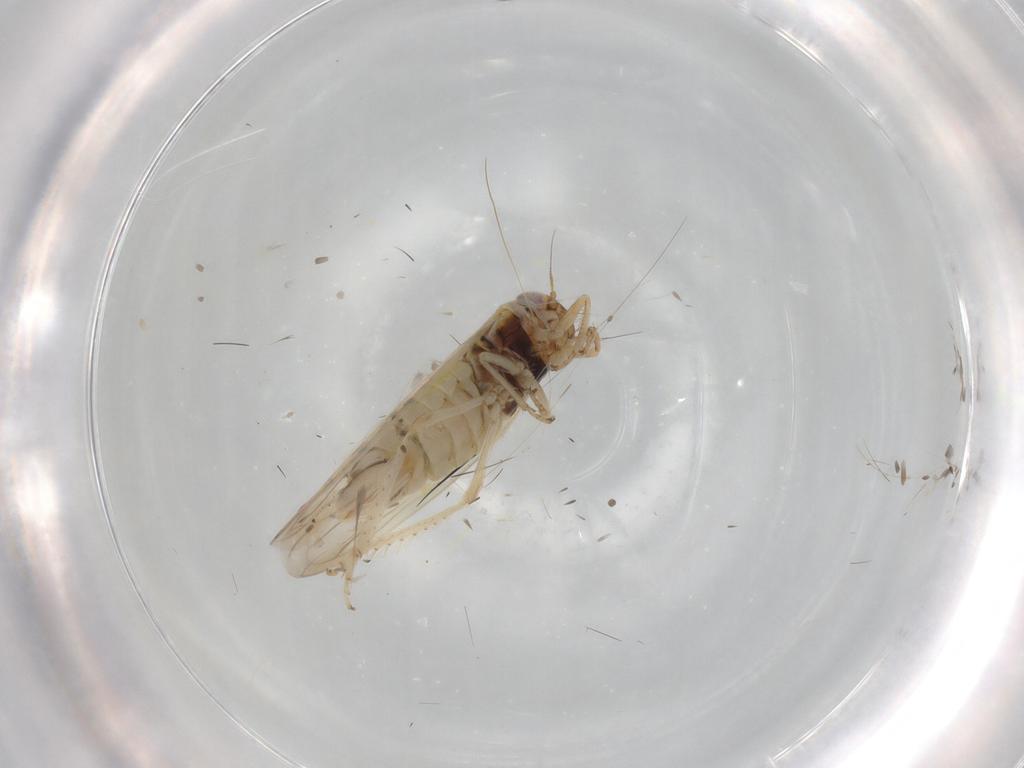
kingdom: Animalia
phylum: Arthropoda
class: Insecta
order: Hemiptera
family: Cicadellidae
